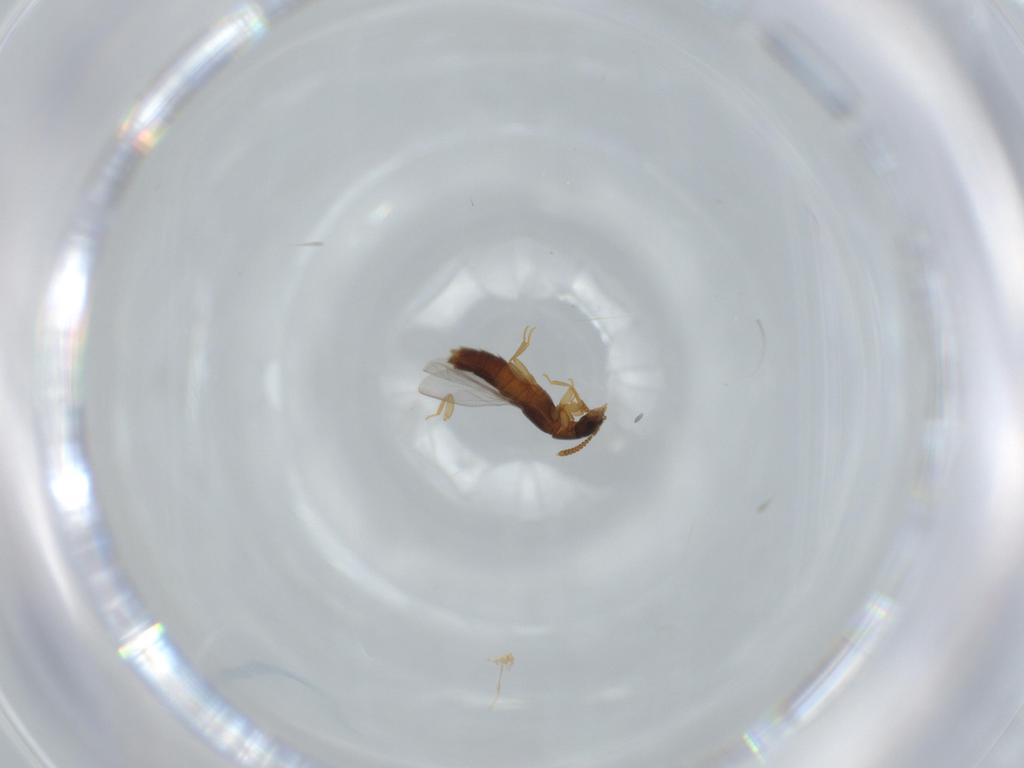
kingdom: Animalia
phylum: Arthropoda
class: Insecta
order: Coleoptera
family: Staphylinidae
